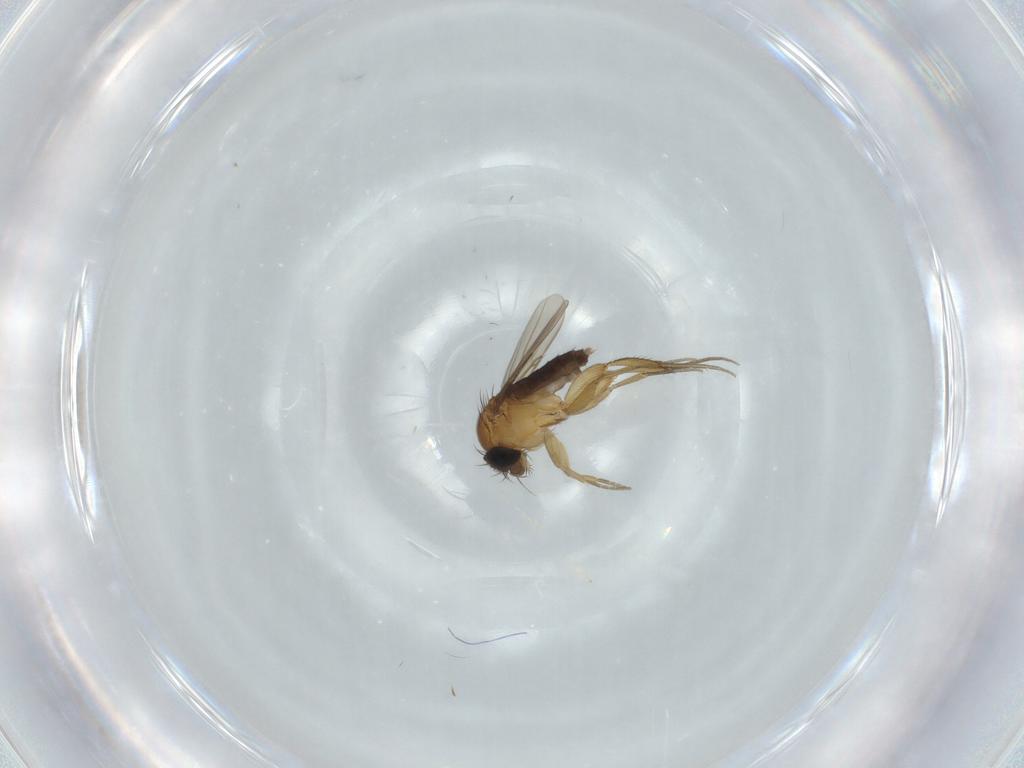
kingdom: Animalia
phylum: Arthropoda
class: Insecta
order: Diptera
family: Phoridae
